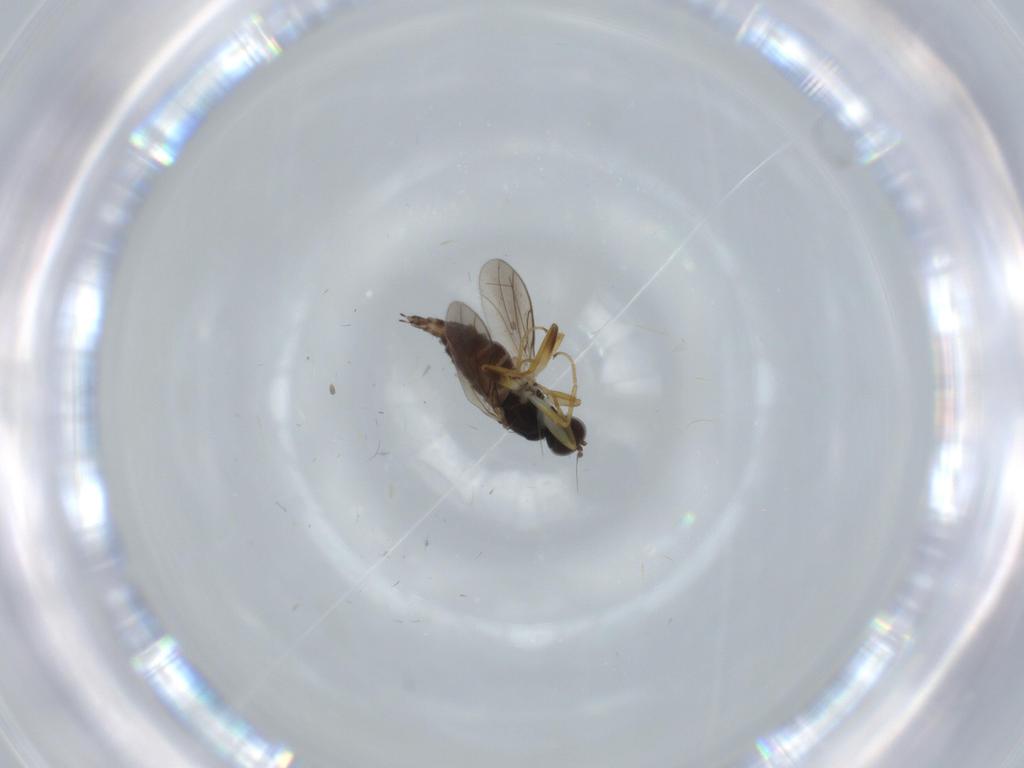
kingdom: Animalia
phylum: Arthropoda
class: Insecta
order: Diptera
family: Hybotidae
